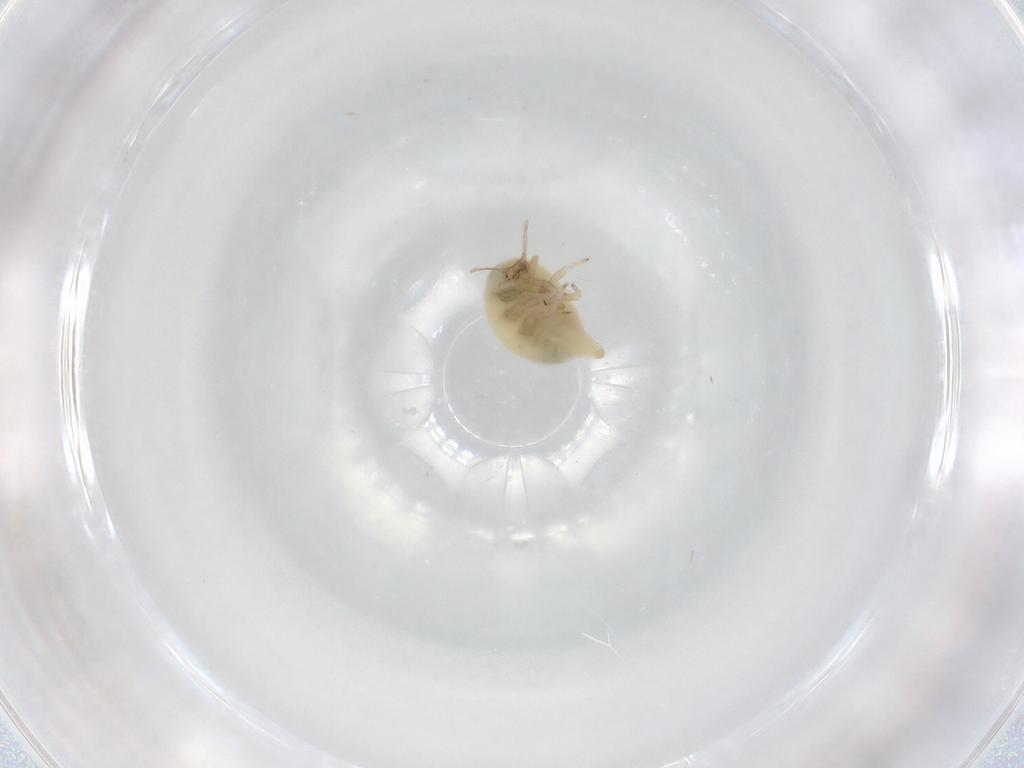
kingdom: Animalia
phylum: Arthropoda
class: Insecta
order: Neuroptera
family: Coniopterygidae
